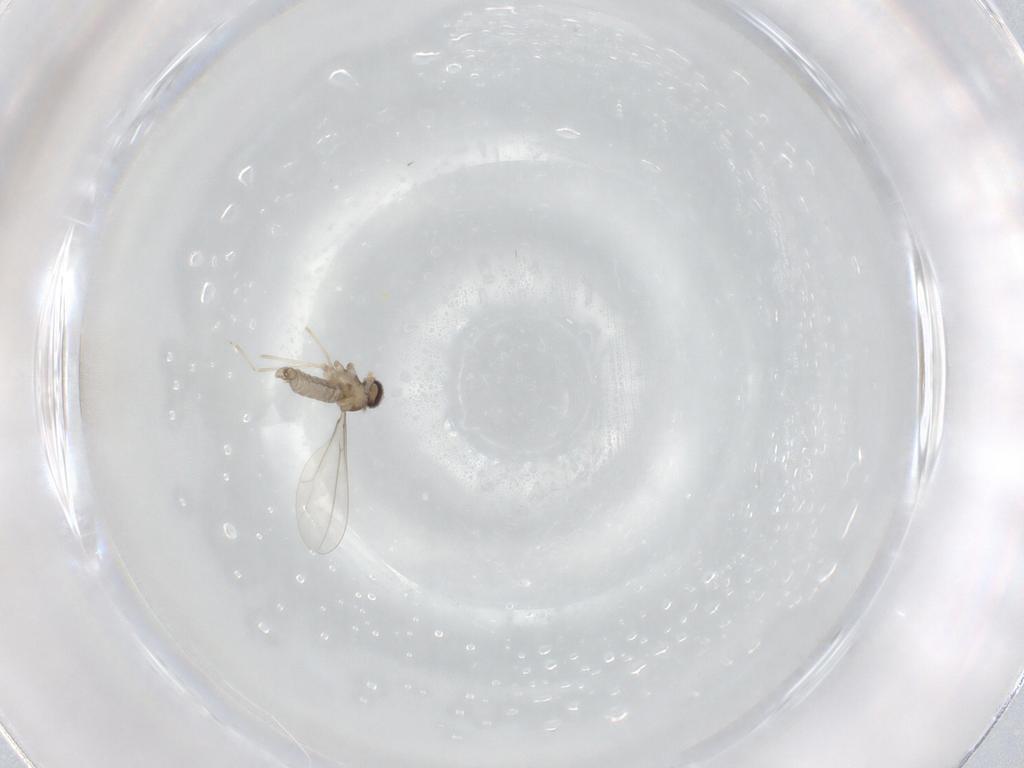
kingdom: Animalia
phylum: Arthropoda
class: Insecta
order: Diptera
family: Cecidomyiidae
